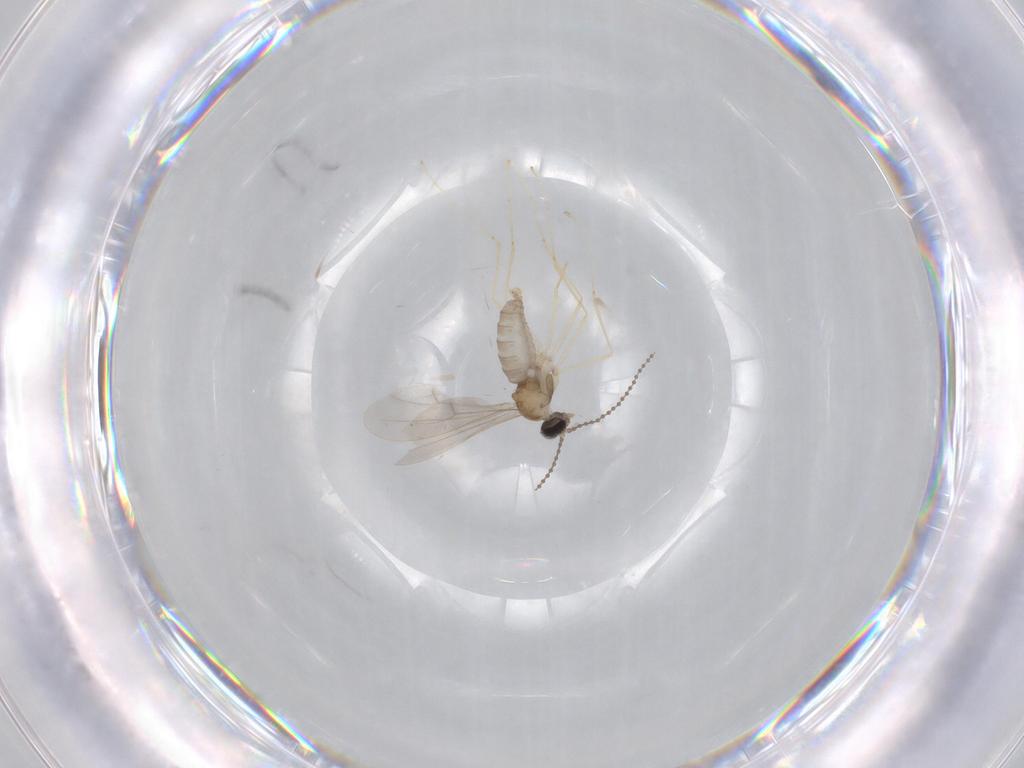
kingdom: Animalia
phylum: Arthropoda
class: Insecta
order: Diptera
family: Cecidomyiidae
